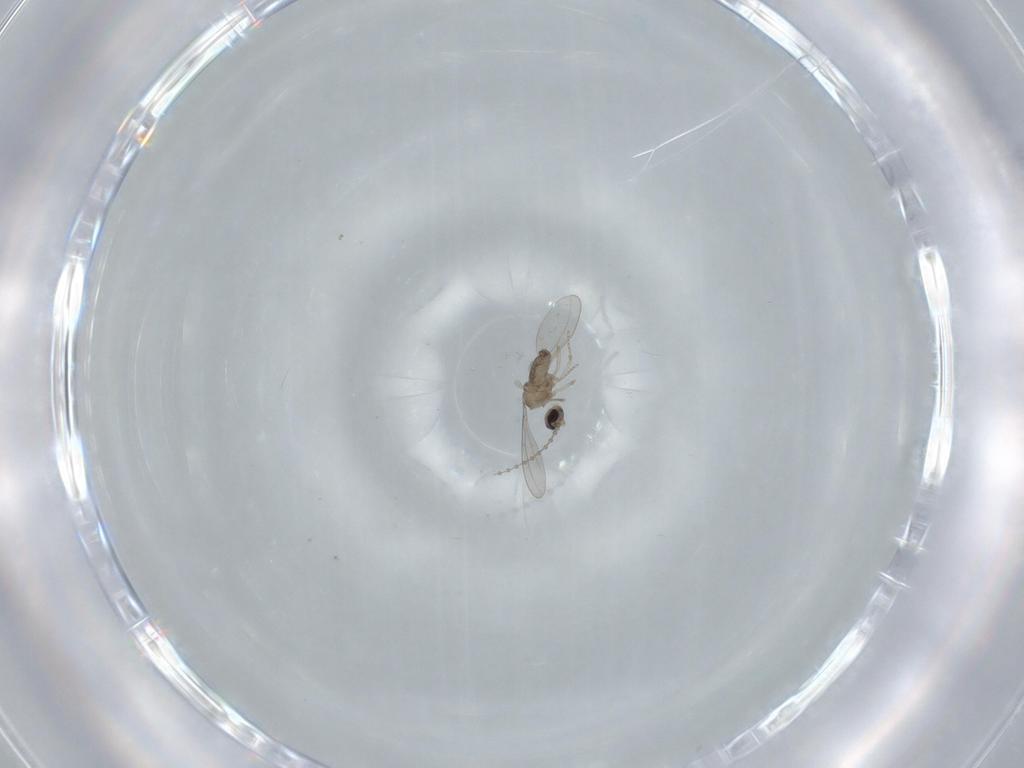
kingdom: Animalia
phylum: Arthropoda
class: Insecta
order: Diptera
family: Cecidomyiidae
